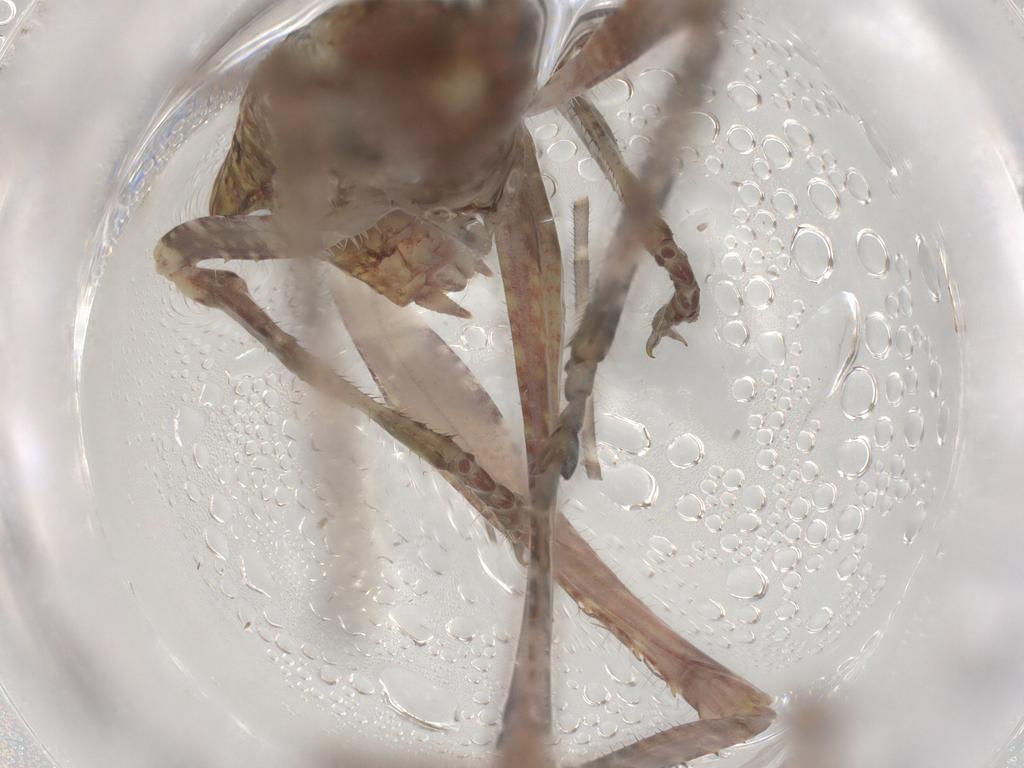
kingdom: Animalia
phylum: Arthropoda
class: Insecta
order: Orthoptera
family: Tettigoniidae
